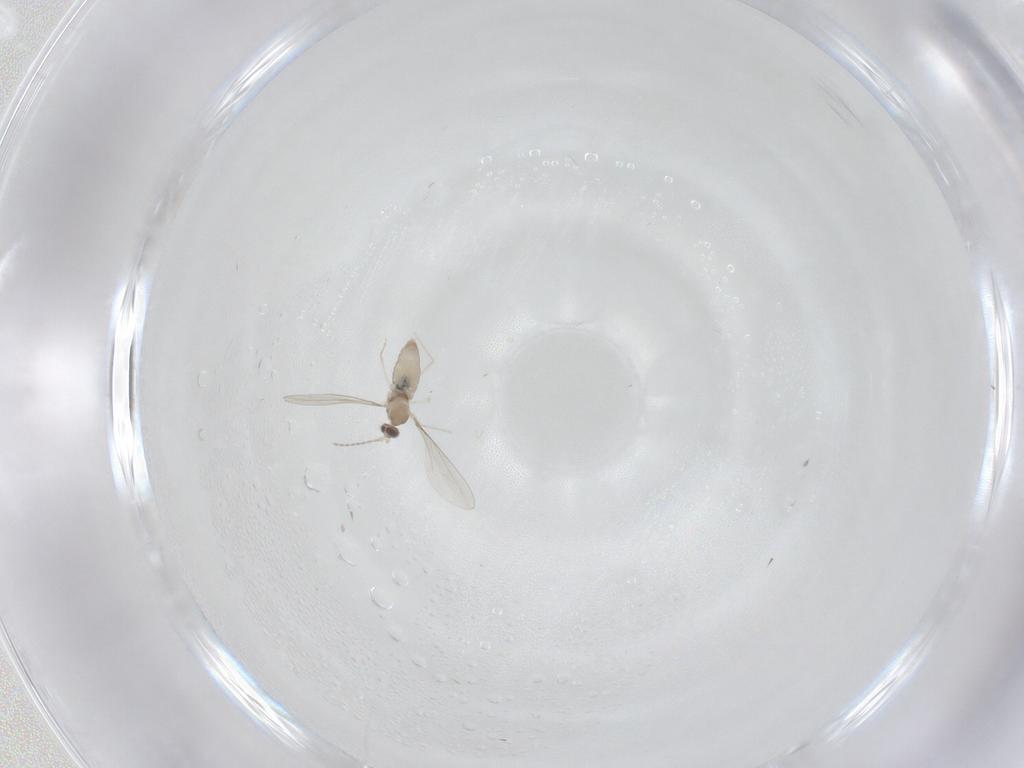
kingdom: Animalia
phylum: Arthropoda
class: Insecta
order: Diptera
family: Cecidomyiidae
